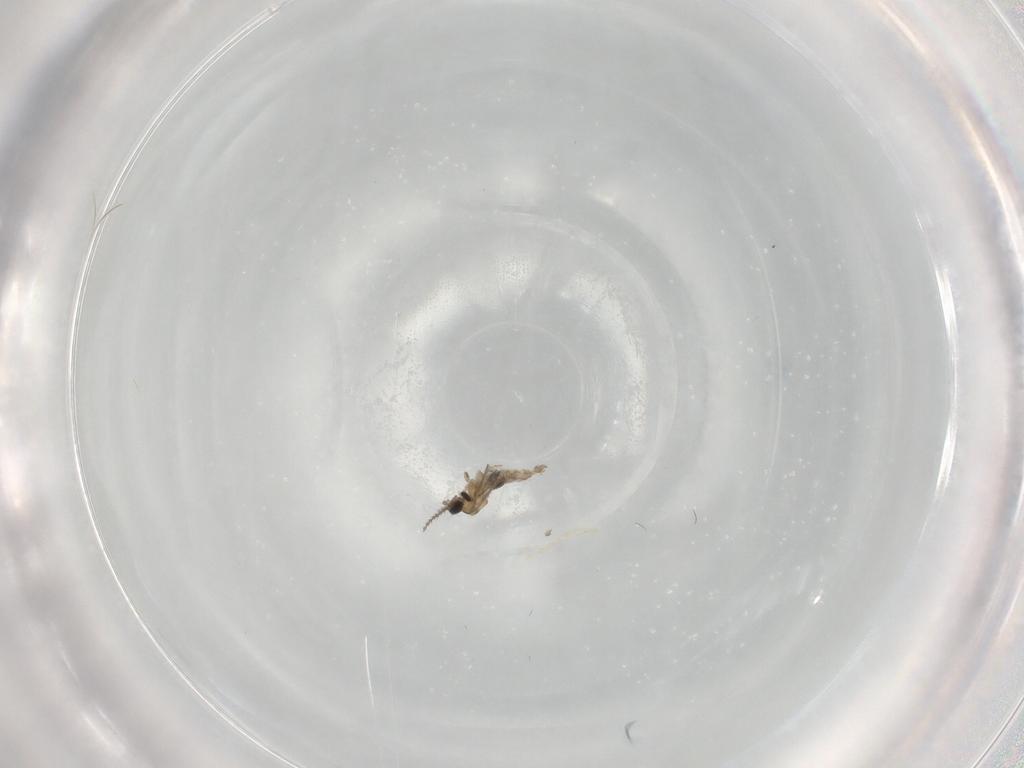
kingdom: Animalia
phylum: Arthropoda
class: Insecta
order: Diptera
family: Cecidomyiidae
